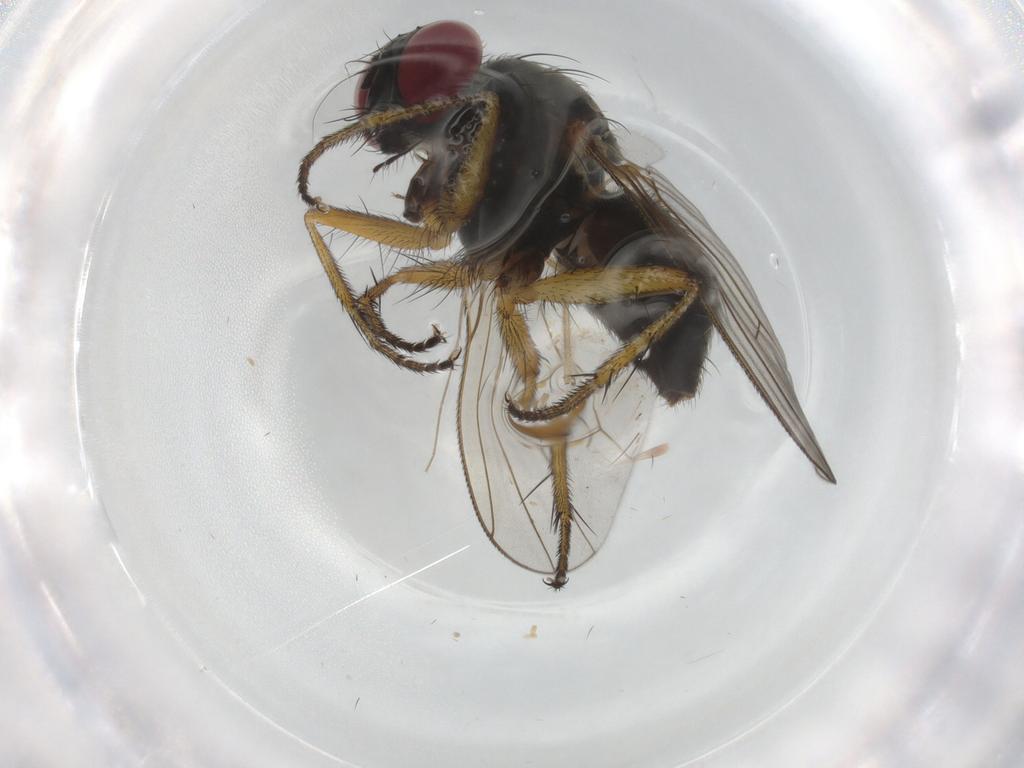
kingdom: Animalia
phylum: Arthropoda
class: Insecta
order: Diptera
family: Muscidae
